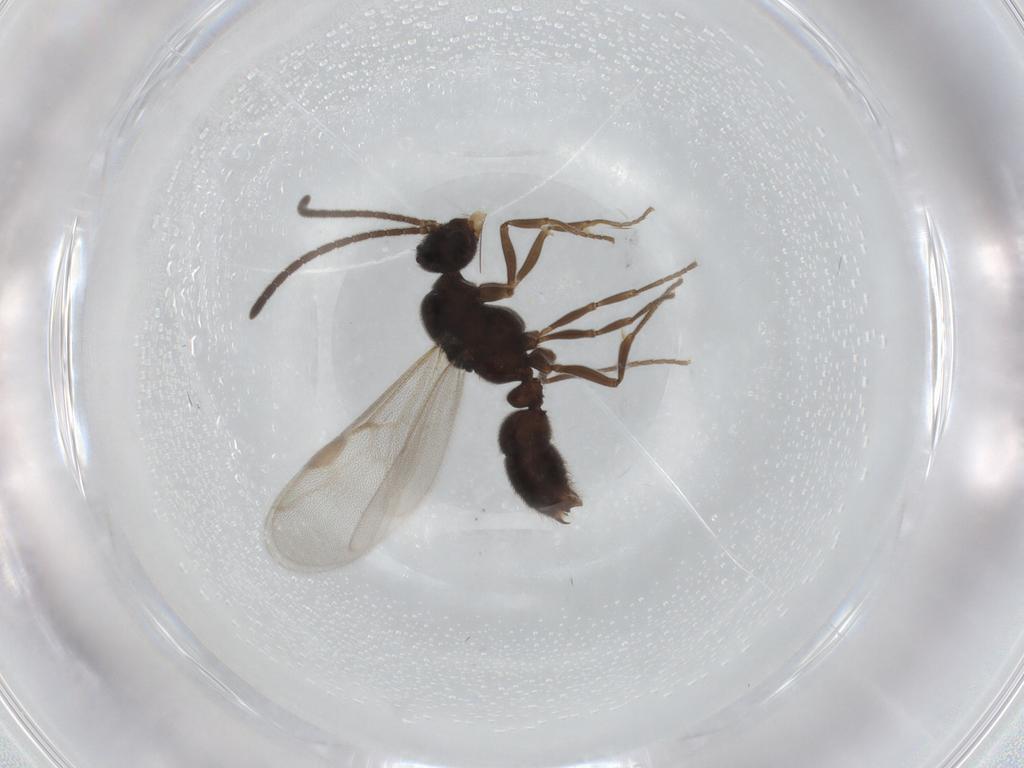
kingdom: Animalia
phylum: Arthropoda
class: Insecta
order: Hymenoptera
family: Formicidae
